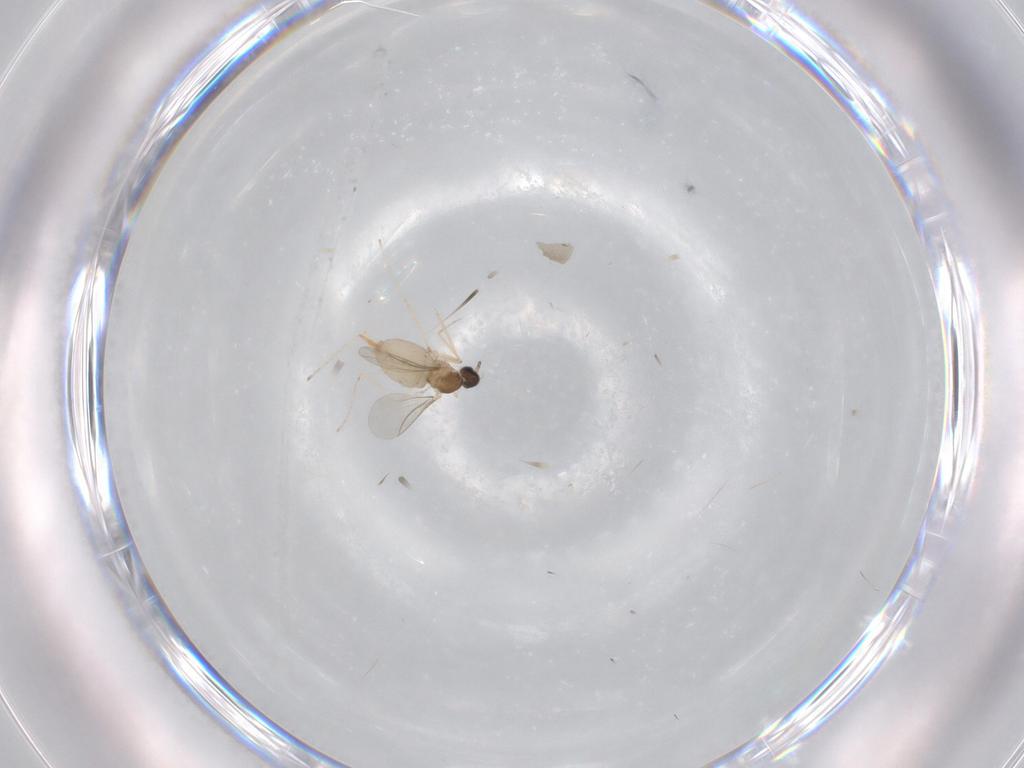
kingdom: Animalia
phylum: Arthropoda
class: Insecta
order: Diptera
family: Cecidomyiidae
